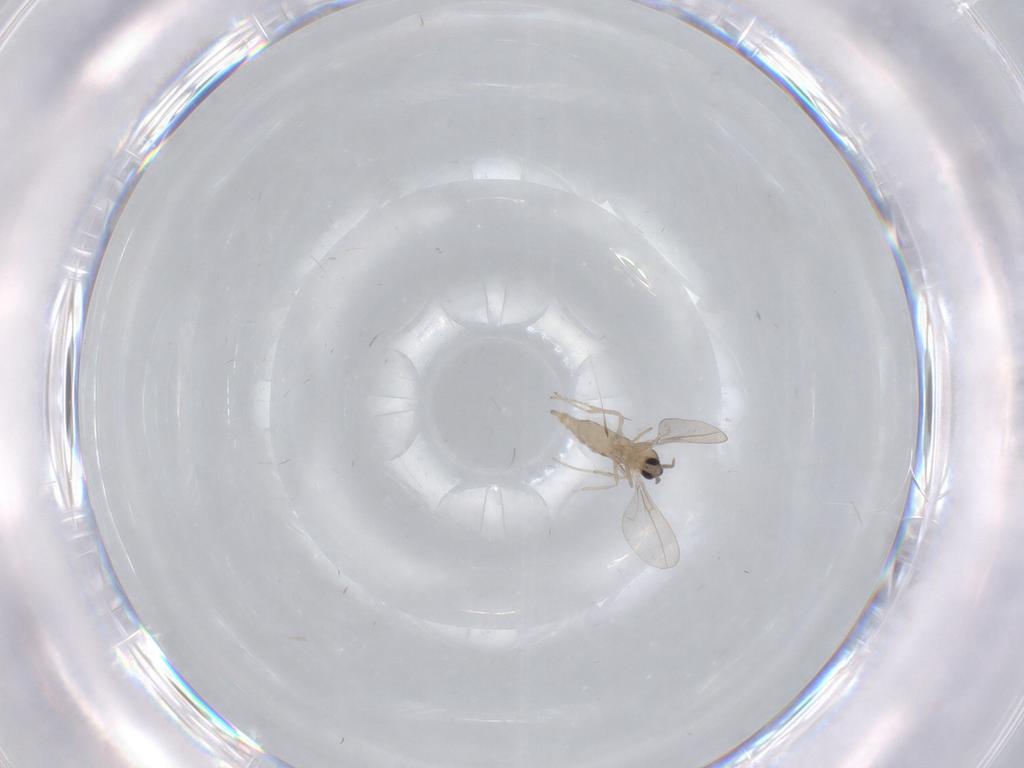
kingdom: Animalia
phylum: Arthropoda
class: Insecta
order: Diptera
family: Cecidomyiidae
